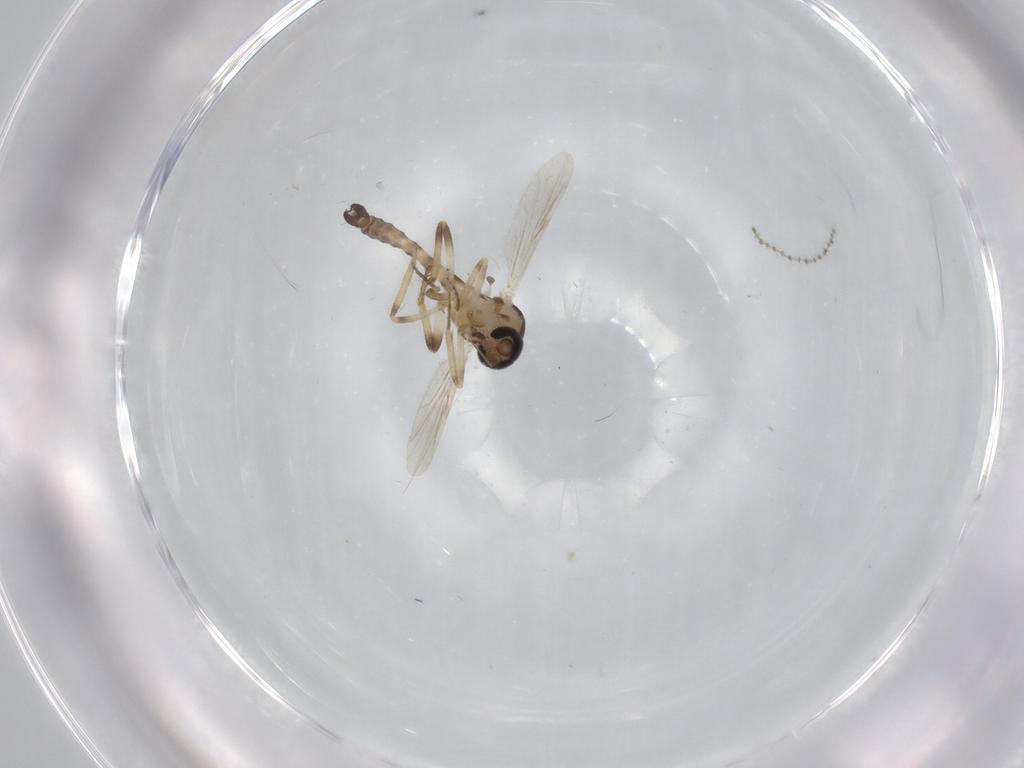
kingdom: Animalia
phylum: Arthropoda
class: Insecta
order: Diptera
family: Ceratopogonidae
